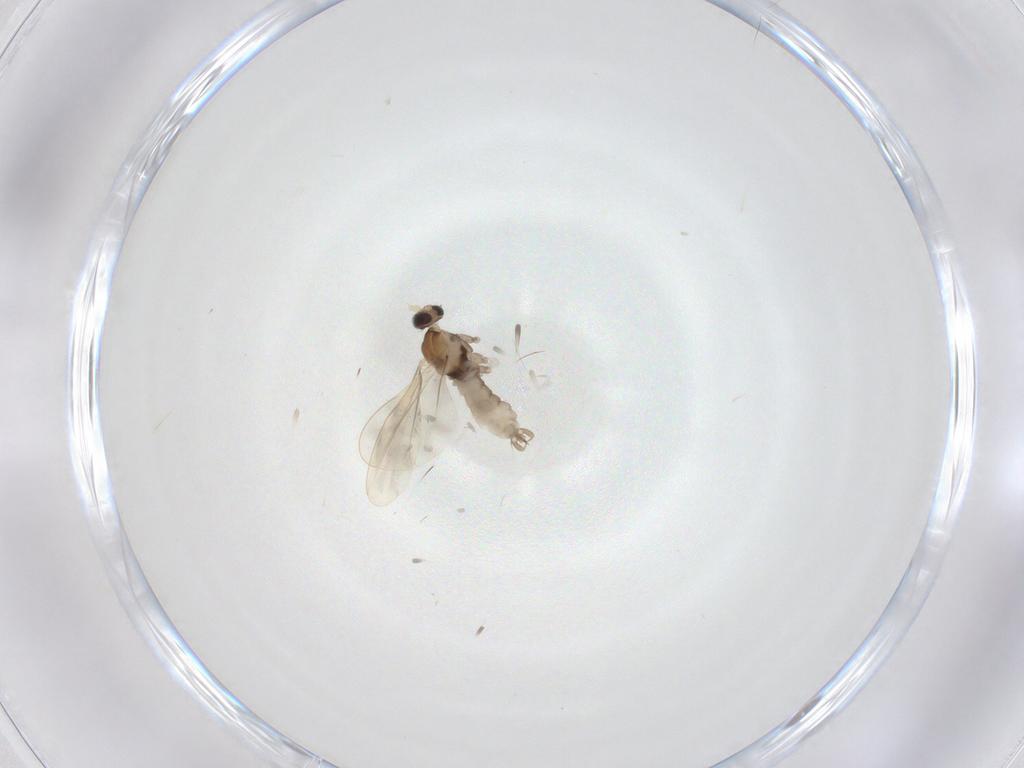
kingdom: Animalia
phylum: Arthropoda
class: Insecta
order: Diptera
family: Cecidomyiidae
